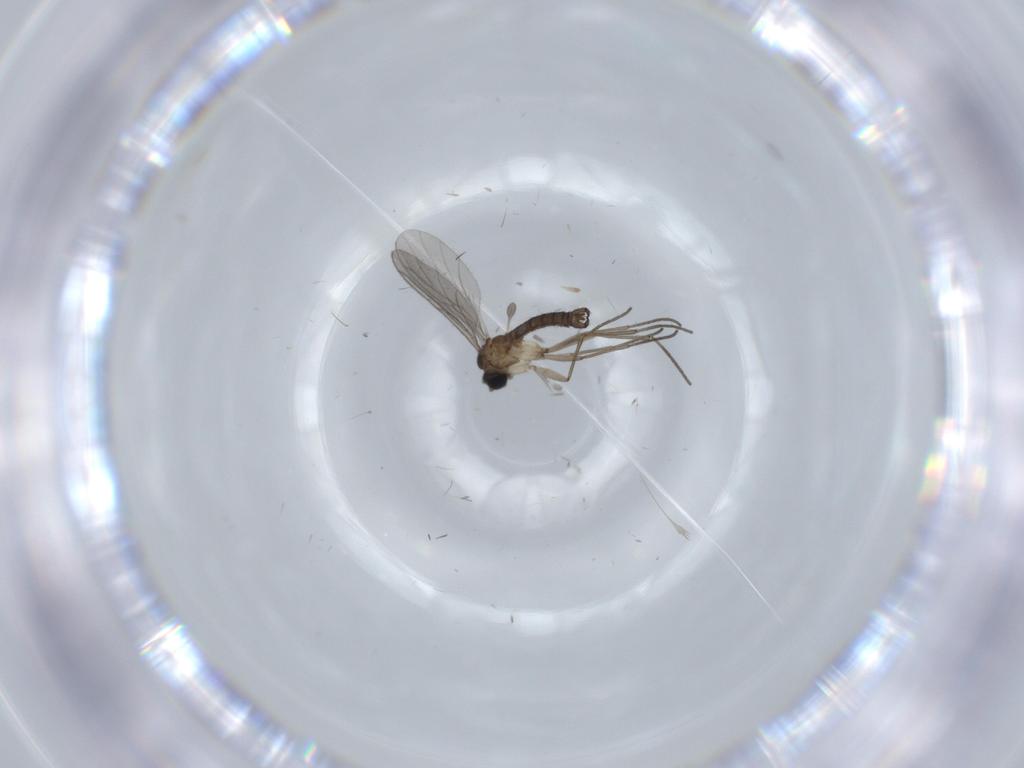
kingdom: Animalia
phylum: Arthropoda
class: Insecta
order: Diptera
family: Sciaridae
